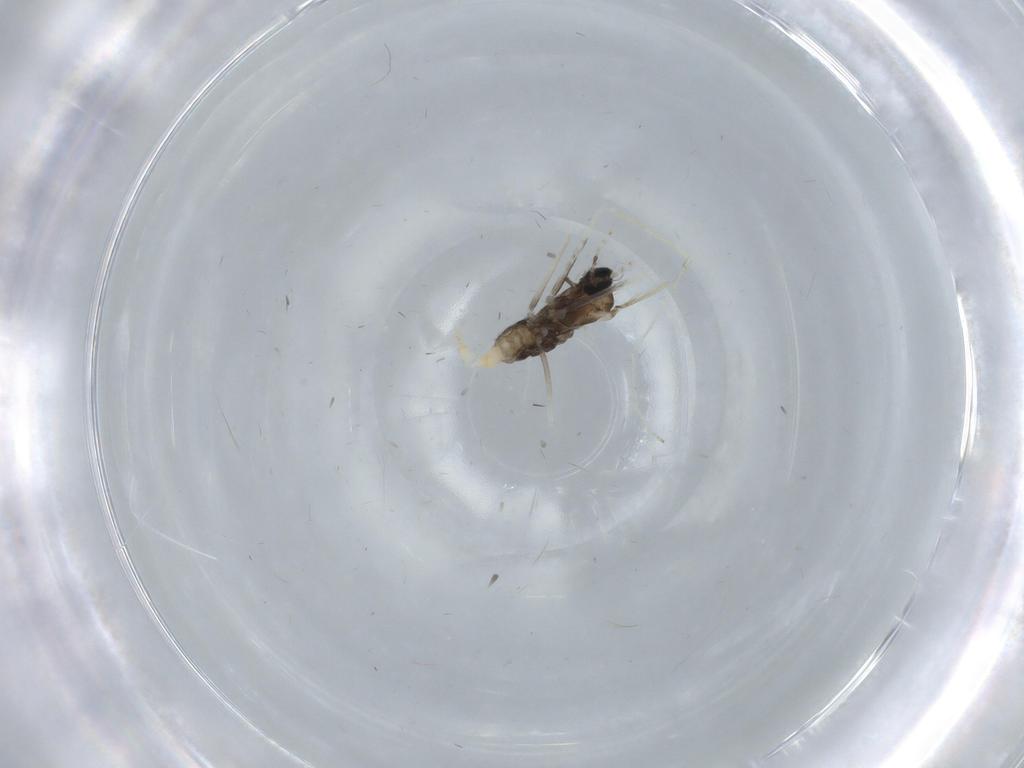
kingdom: Animalia
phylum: Arthropoda
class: Insecta
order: Diptera
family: Cecidomyiidae
